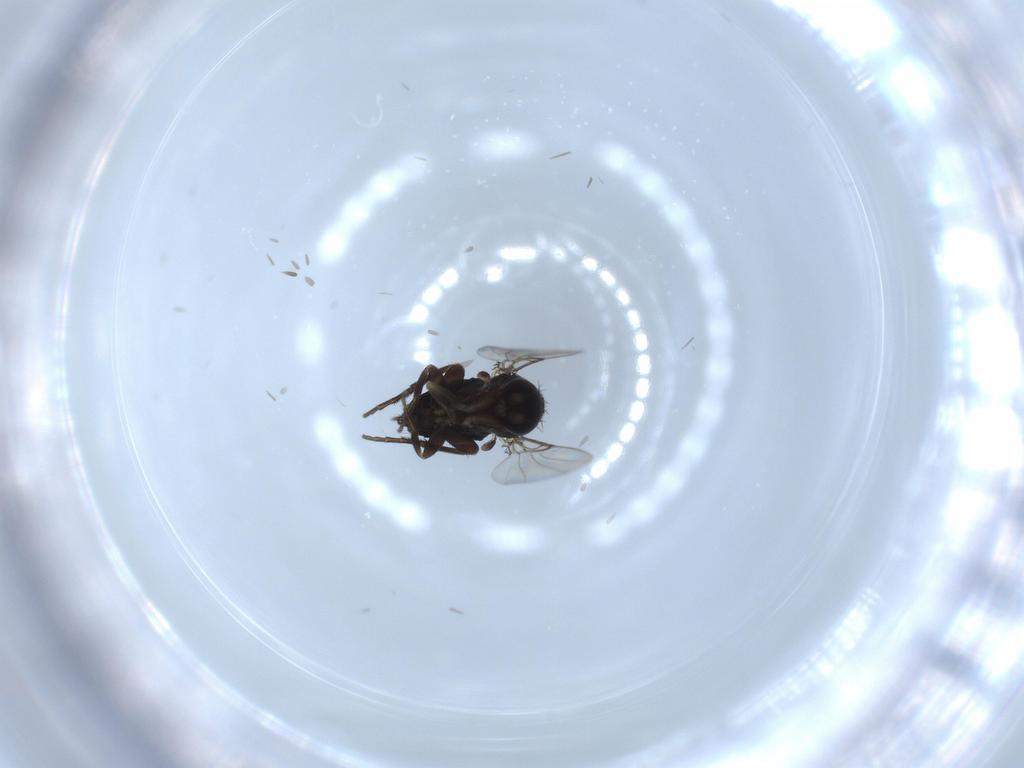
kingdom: Animalia
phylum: Arthropoda
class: Insecta
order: Diptera
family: Phoridae
